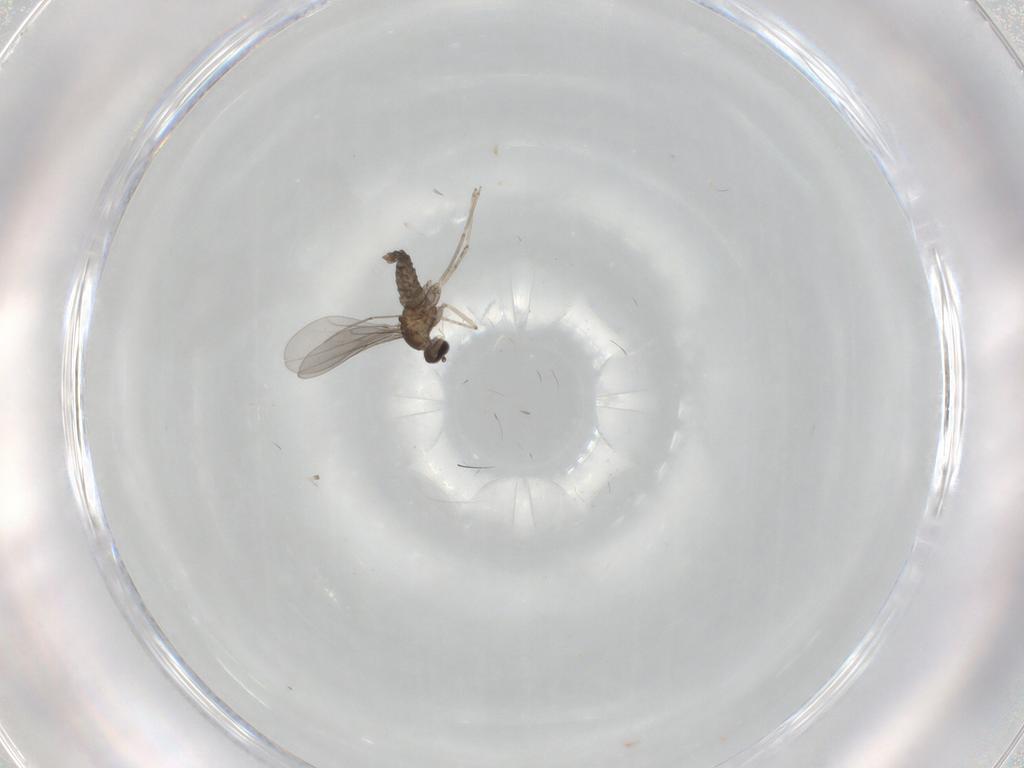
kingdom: Animalia
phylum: Arthropoda
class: Insecta
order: Diptera
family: Cecidomyiidae
